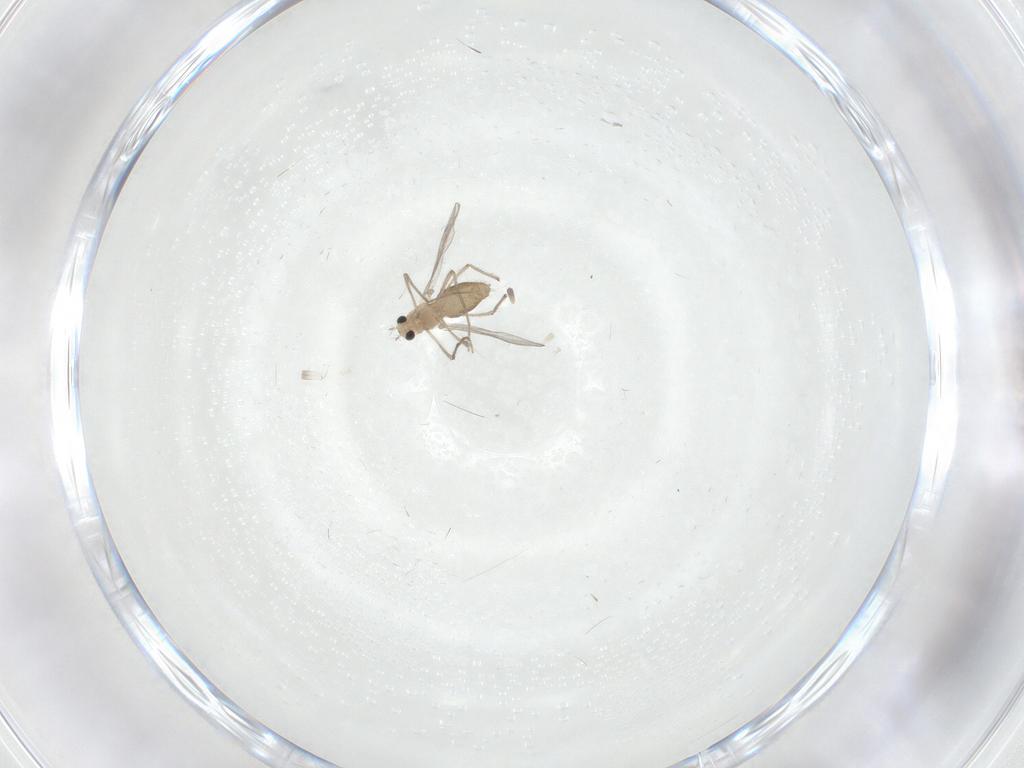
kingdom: Animalia
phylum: Arthropoda
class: Insecta
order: Diptera
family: Chironomidae
